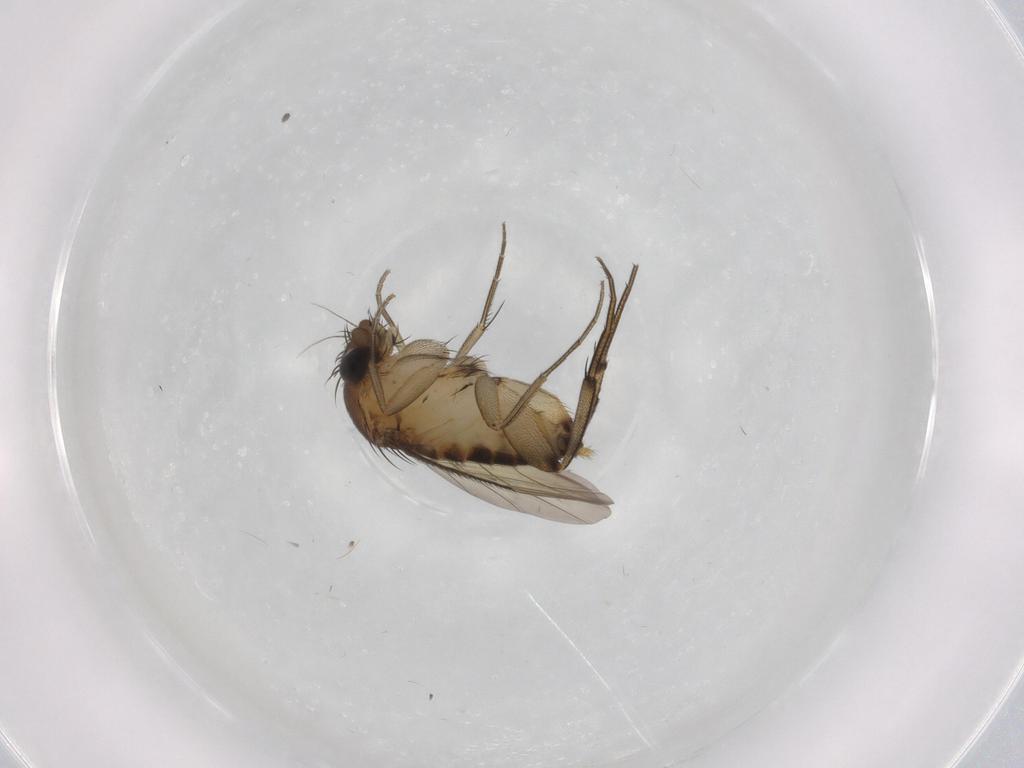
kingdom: Animalia
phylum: Arthropoda
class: Insecta
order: Diptera
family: Phoridae
